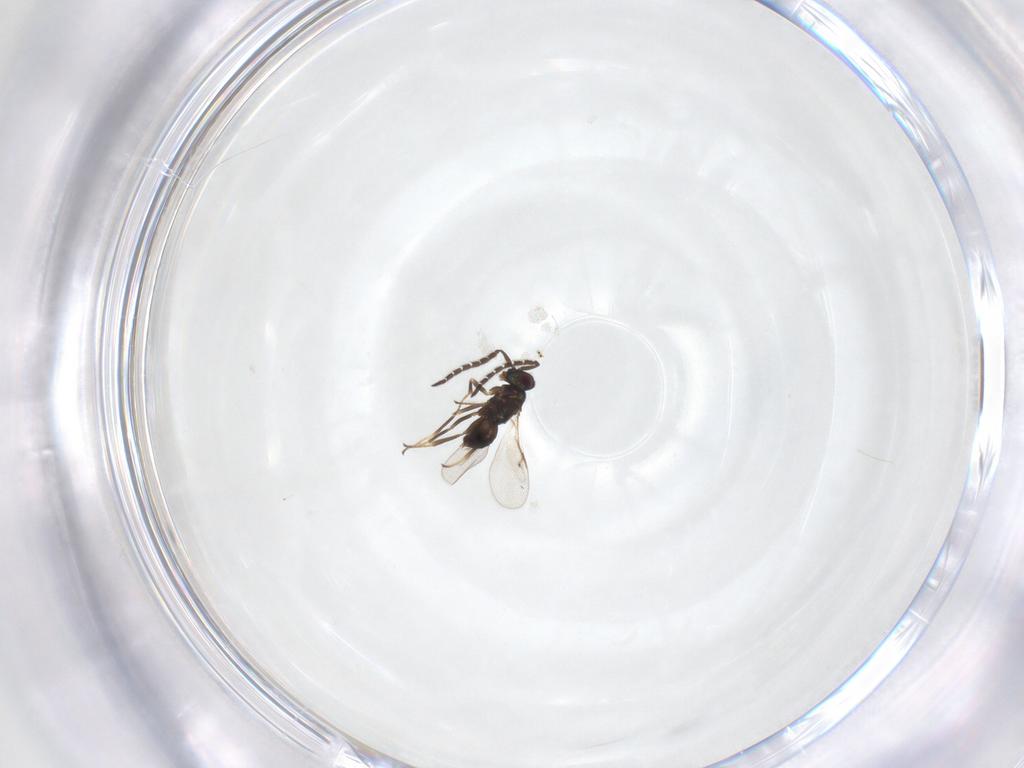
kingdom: Animalia
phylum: Arthropoda
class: Insecta
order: Hymenoptera
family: Encyrtidae
